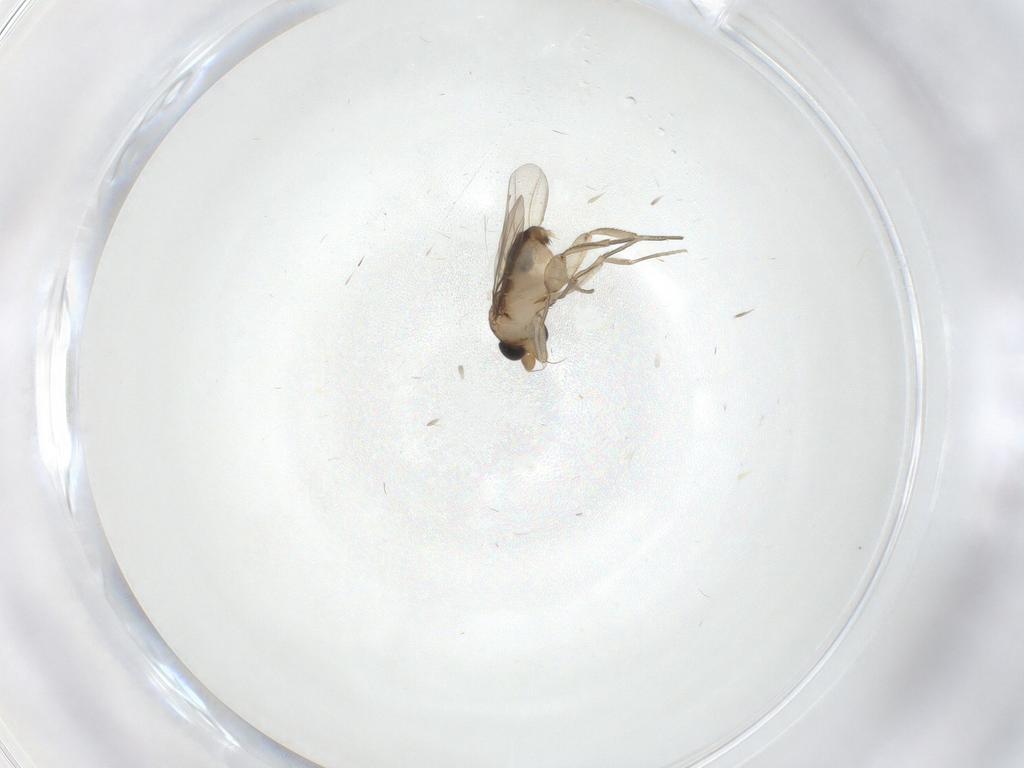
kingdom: Animalia
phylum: Arthropoda
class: Insecta
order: Diptera
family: Phoridae
